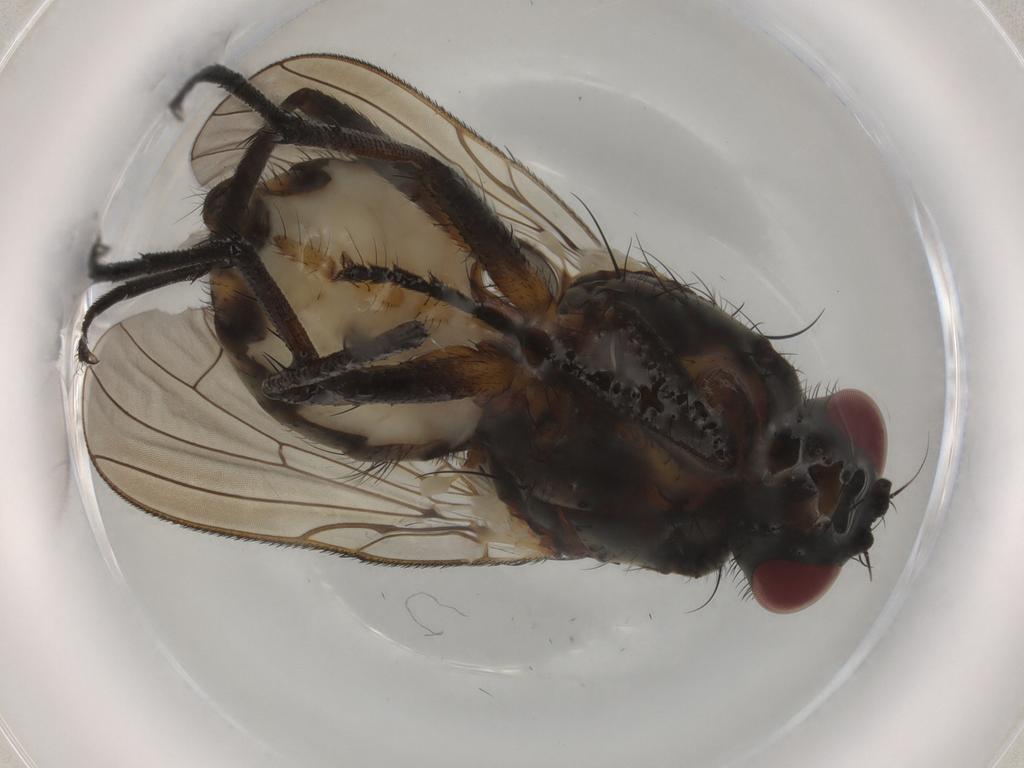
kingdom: Animalia
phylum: Arthropoda
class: Insecta
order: Diptera
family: Anthomyiidae
